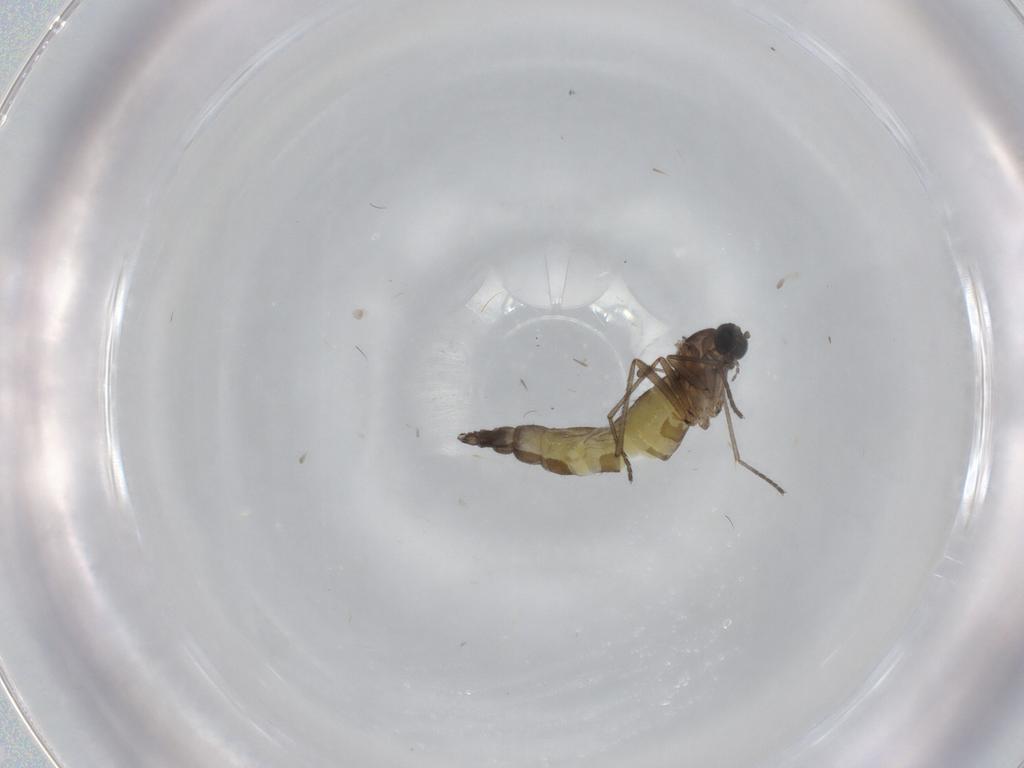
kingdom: Animalia
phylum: Arthropoda
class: Insecta
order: Diptera
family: Sciaridae
